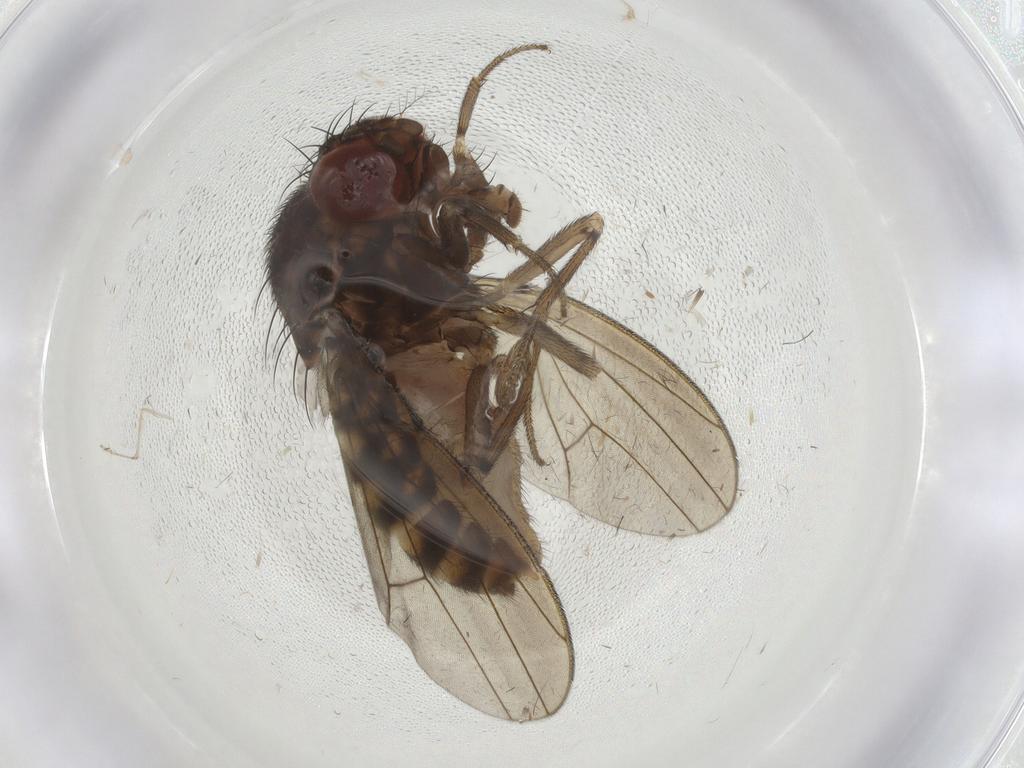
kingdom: Animalia
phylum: Arthropoda
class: Insecta
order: Diptera
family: Drosophilidae
